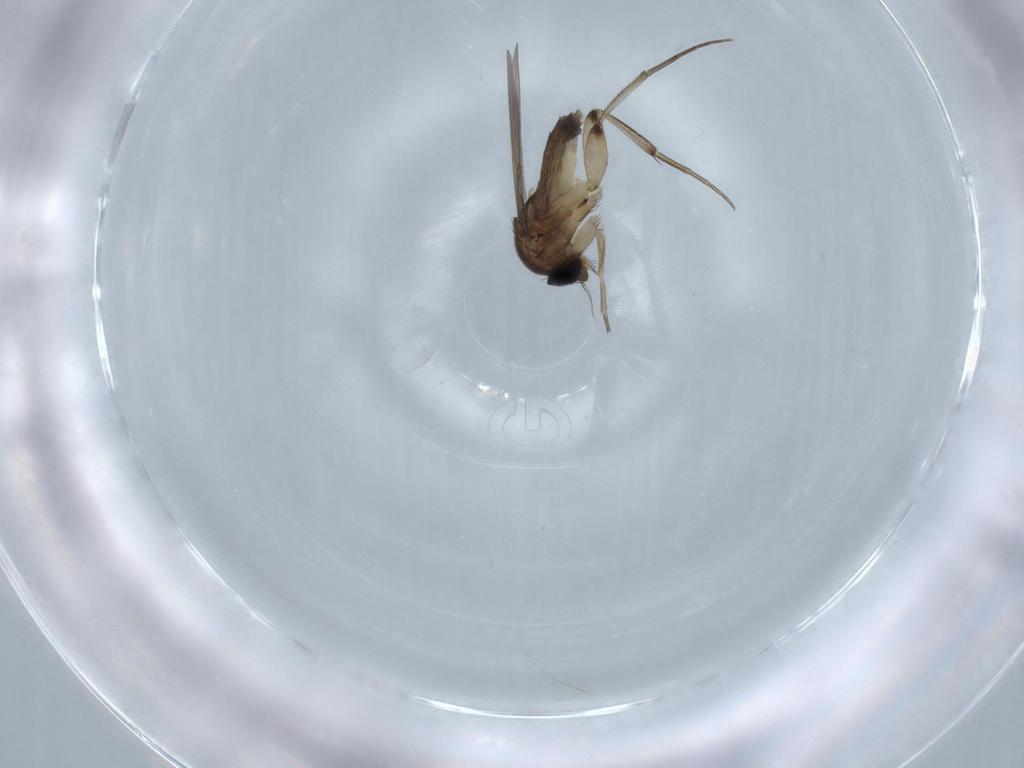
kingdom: Animalia
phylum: Arthropoda
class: Insecta
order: Diptera
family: Phoridae
